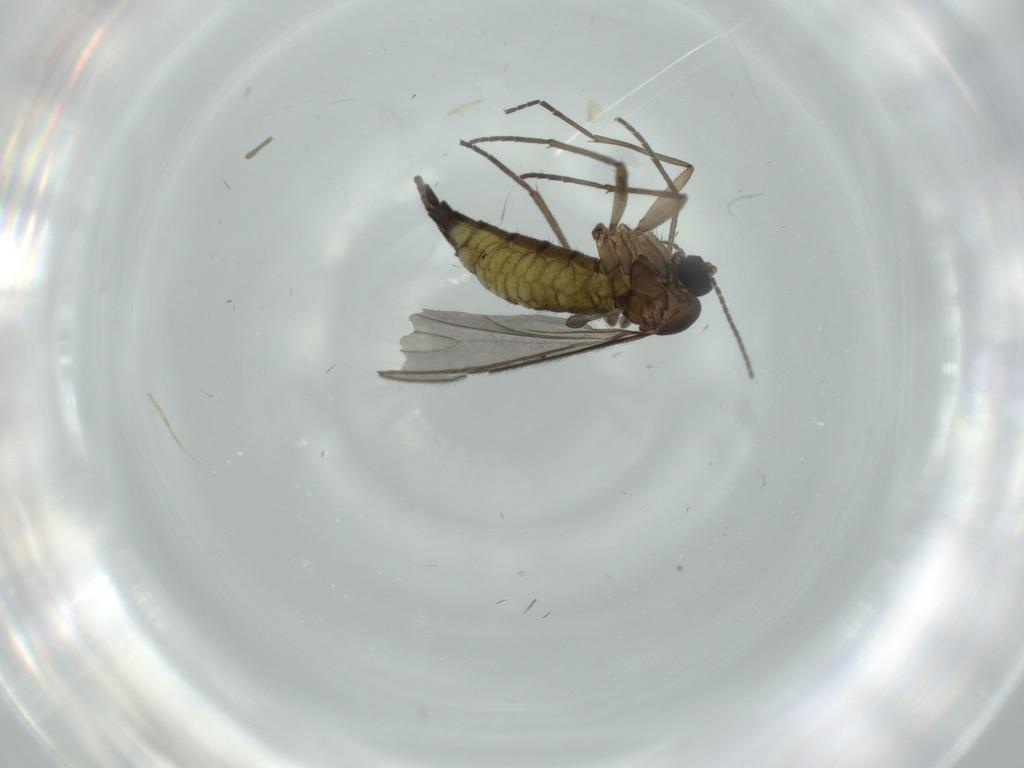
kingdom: Animalia
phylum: Arthropoda
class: Insecta
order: Diptera
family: Sciaridae
